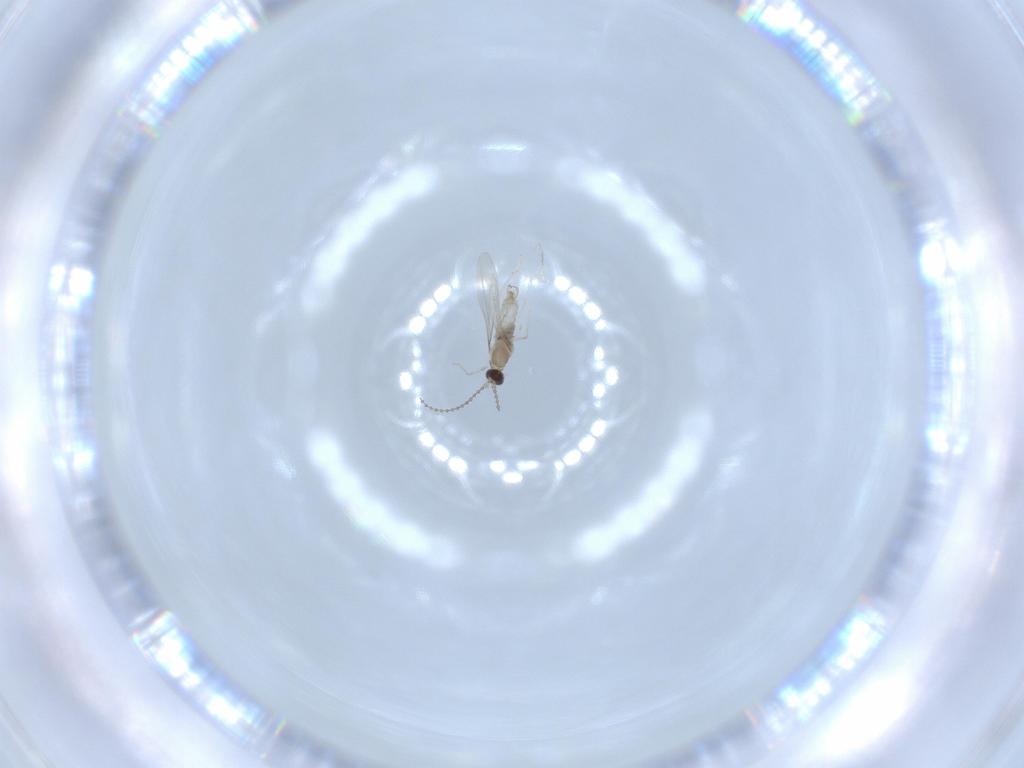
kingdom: Animalia
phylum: Arthropoda
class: Insecta
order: Diptera
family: Cecidomyiidae
